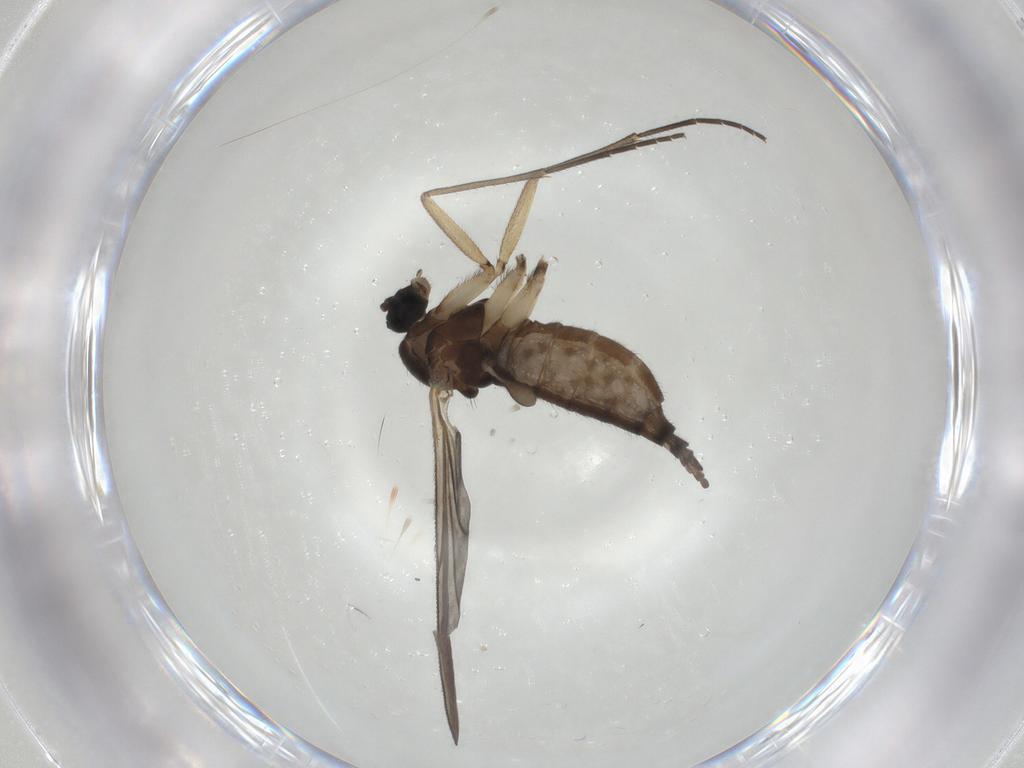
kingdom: Animalia
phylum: Arthropoda
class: Insecta
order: Diptera
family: Sciaridae
